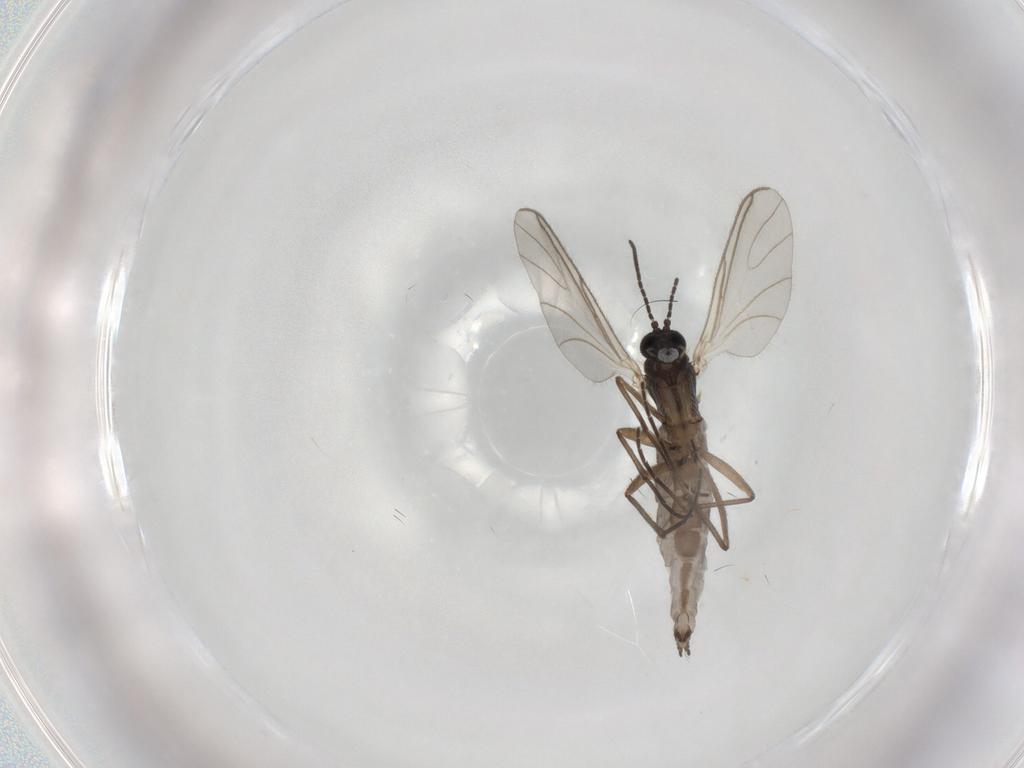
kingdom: Animalia
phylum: Arthropoda
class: Insecta
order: Diptera
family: Sciaridae
